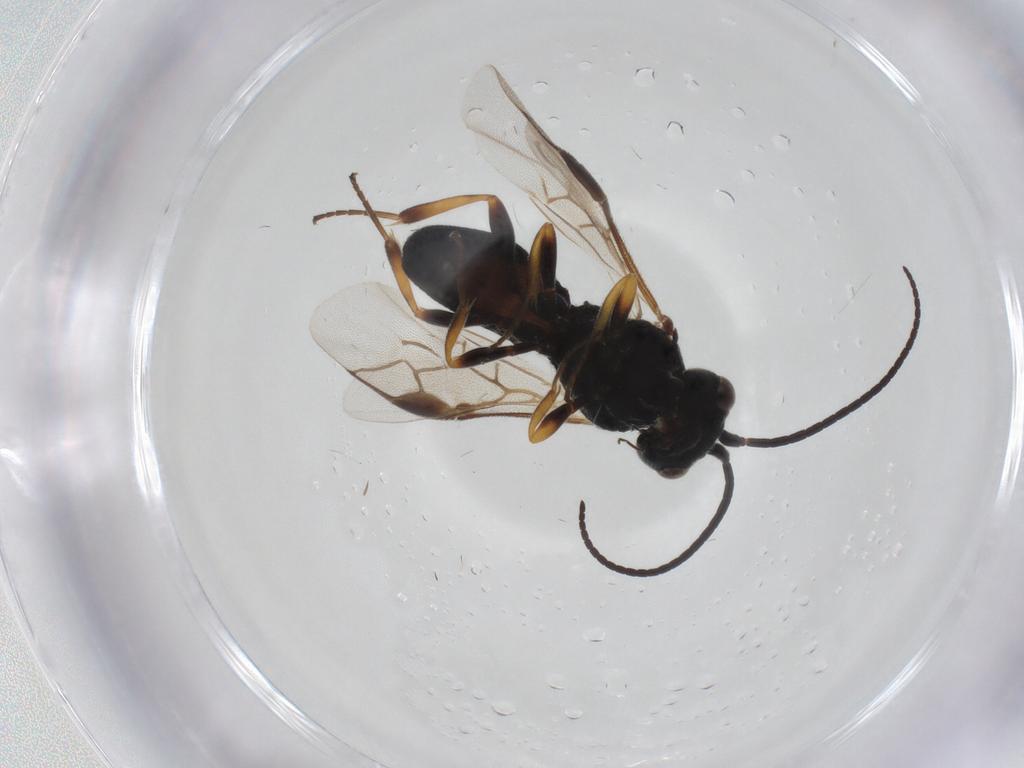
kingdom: Animalia
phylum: Arthropoda
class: Insecta
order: Hymenoptera
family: Braconidae
